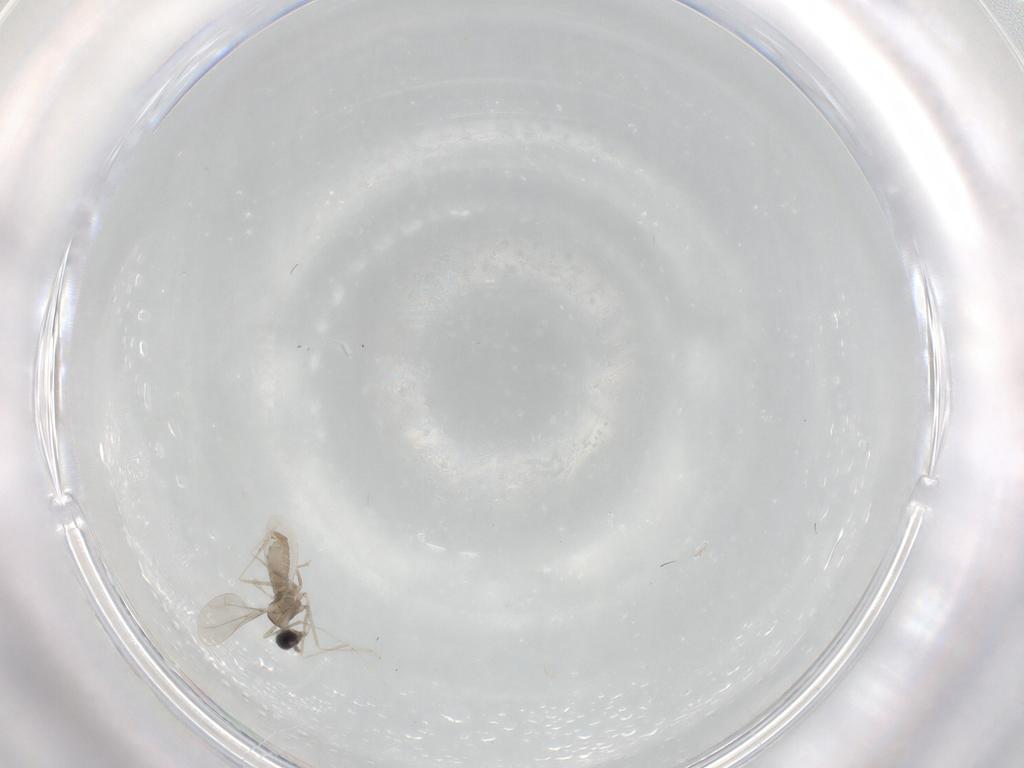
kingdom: Animalia
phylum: Arthropoda
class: Insecta
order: Diptera
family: Cecidomyiidae
